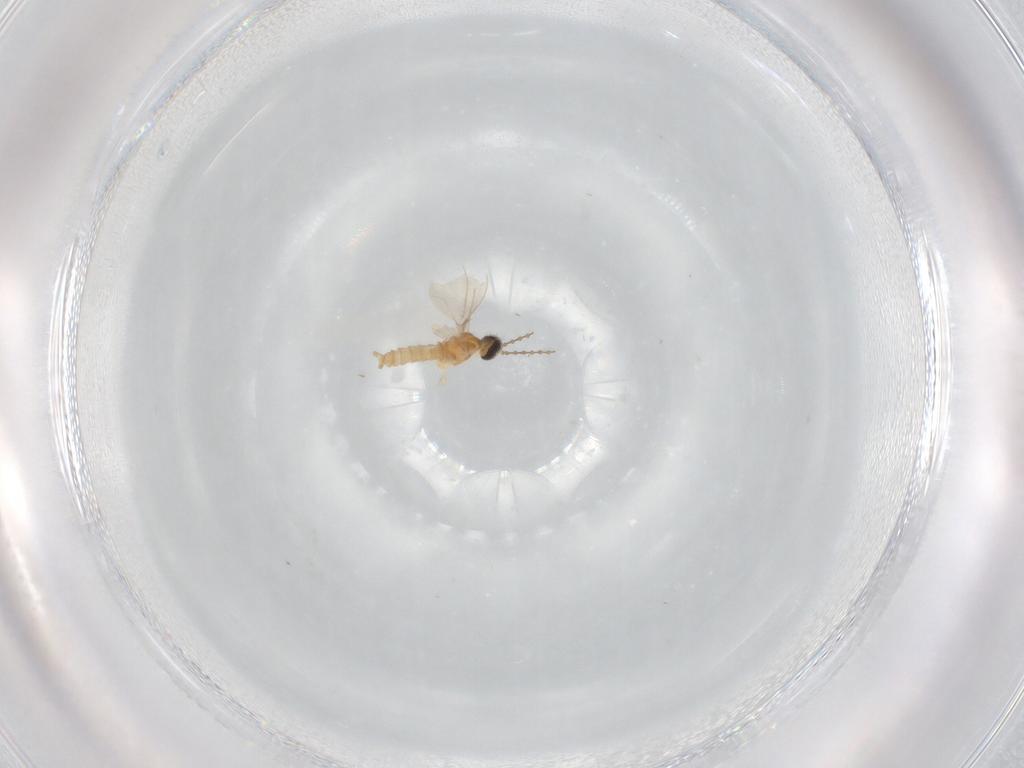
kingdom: Animalia
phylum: Arthropoda
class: Insecta
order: Diptera
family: Cecidomyiidae
